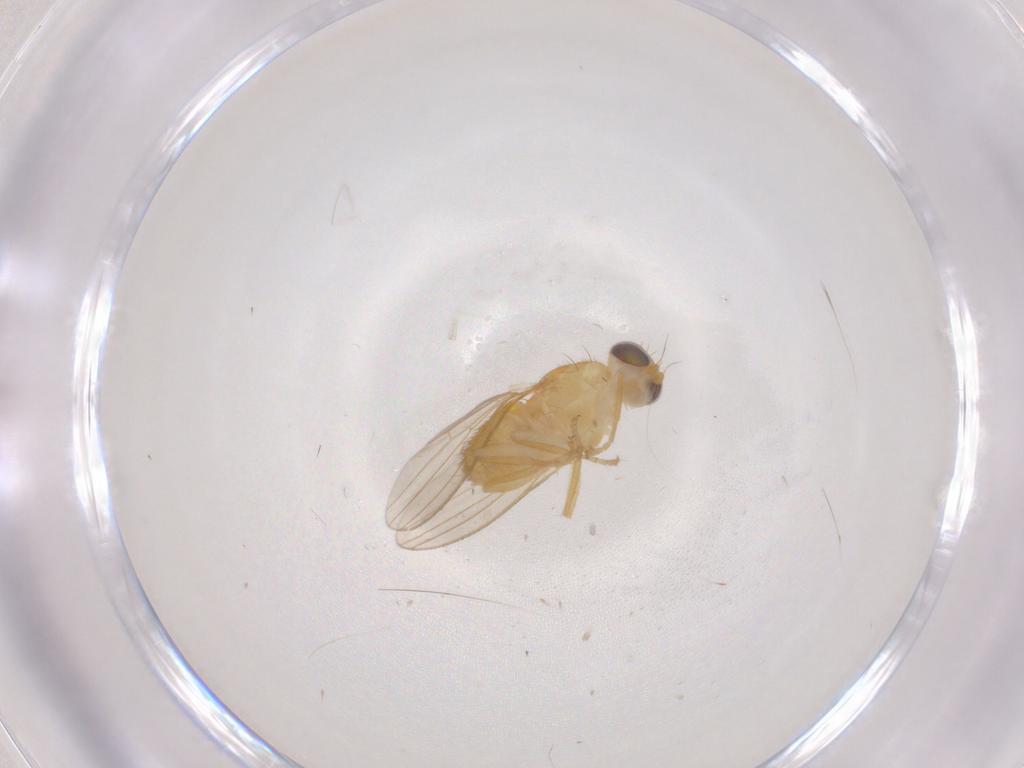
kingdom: Animalia
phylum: Arthropoda
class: Insecta
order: Diptera
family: Chyromyidae
